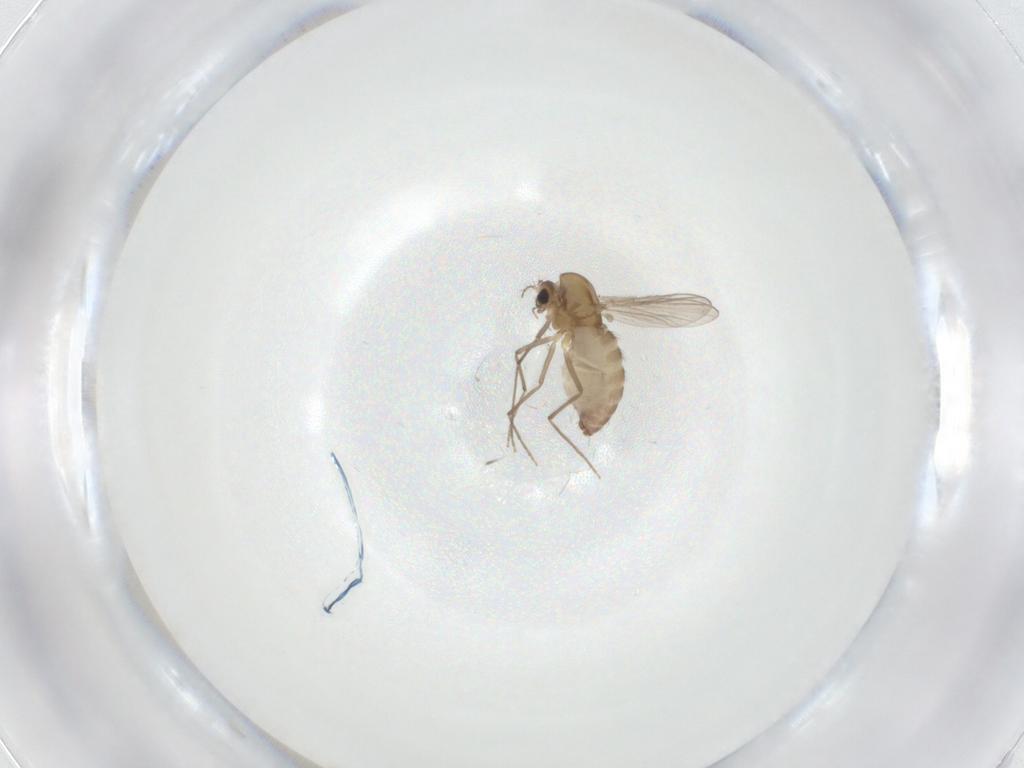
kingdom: Animalia
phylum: Arthropoda
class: Insecta
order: Diptera
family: Chironomidae
